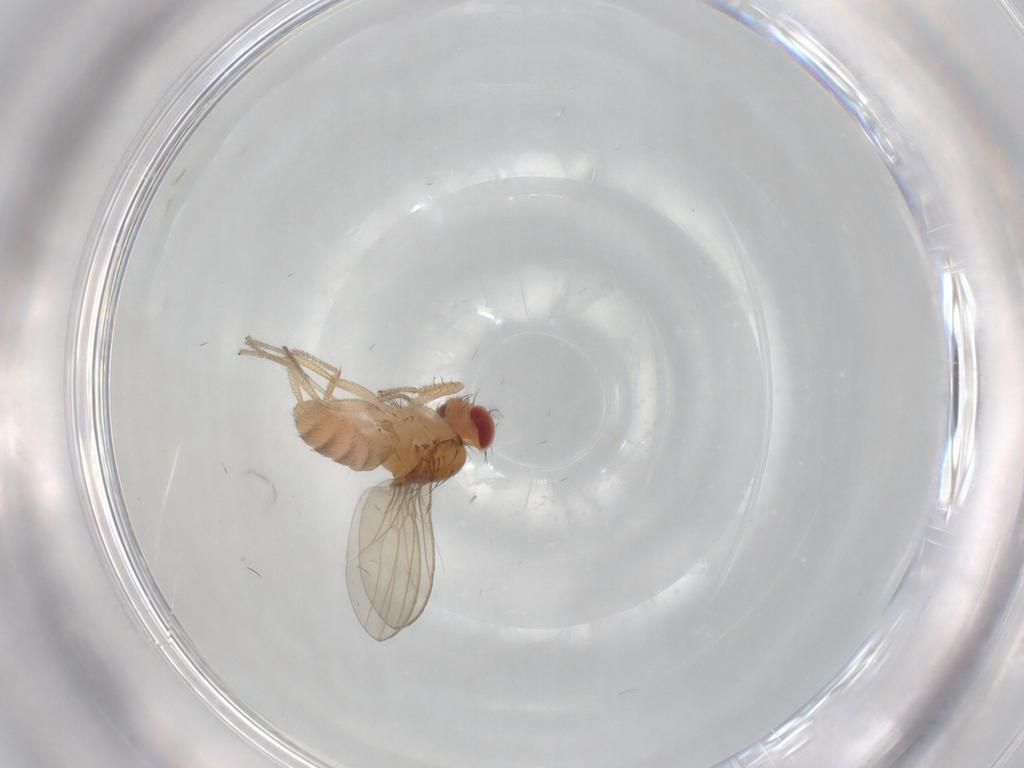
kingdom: Animalia
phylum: Arthropoda
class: Insecta
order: Diptera
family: Drosophilidae
